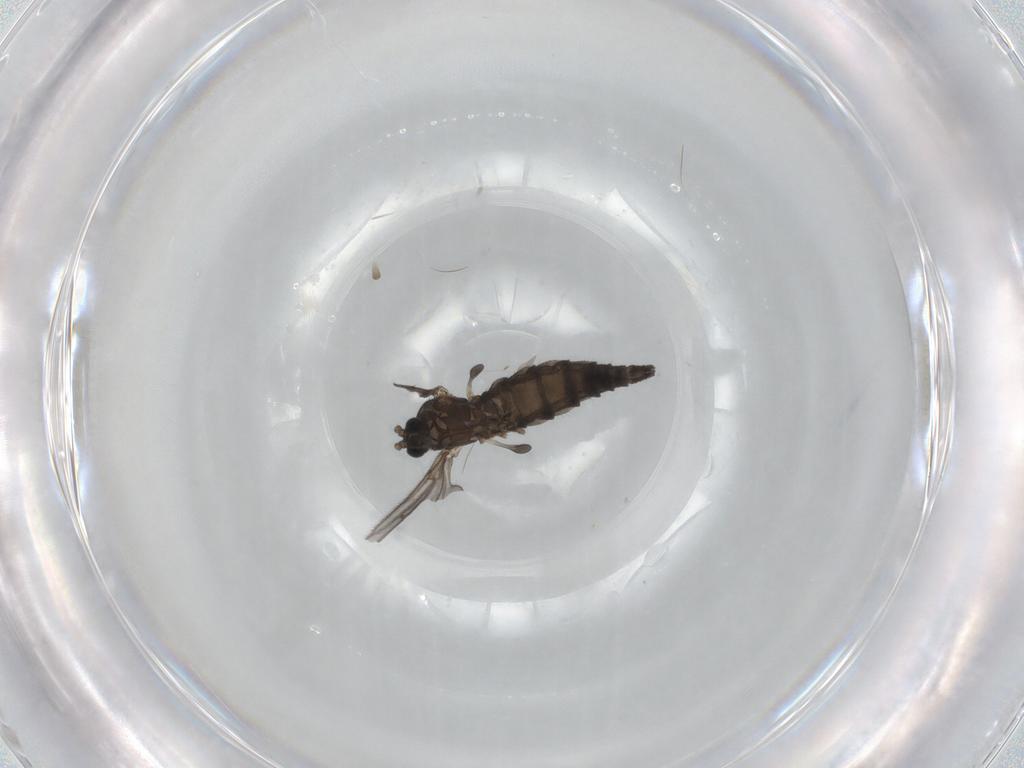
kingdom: Animalia
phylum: Arthropoda
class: Insecta
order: Diptera
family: Sciaridae
